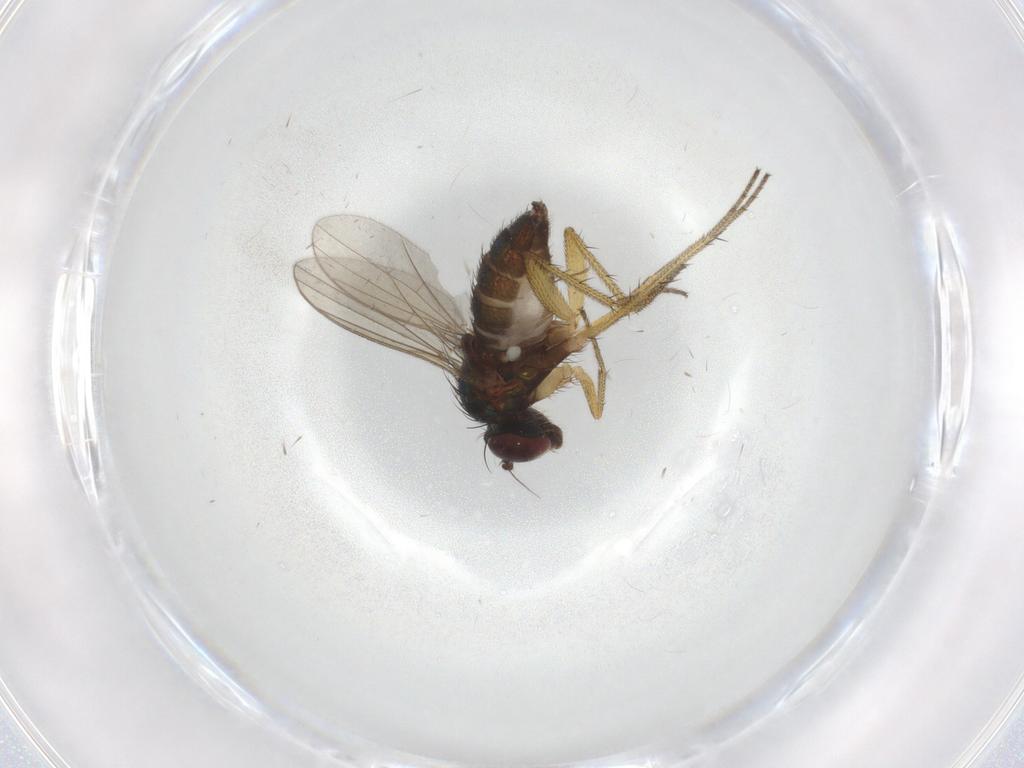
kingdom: Animalia
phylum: Arthropoda
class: Insecta
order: Diptera
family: Dolichopodidae
